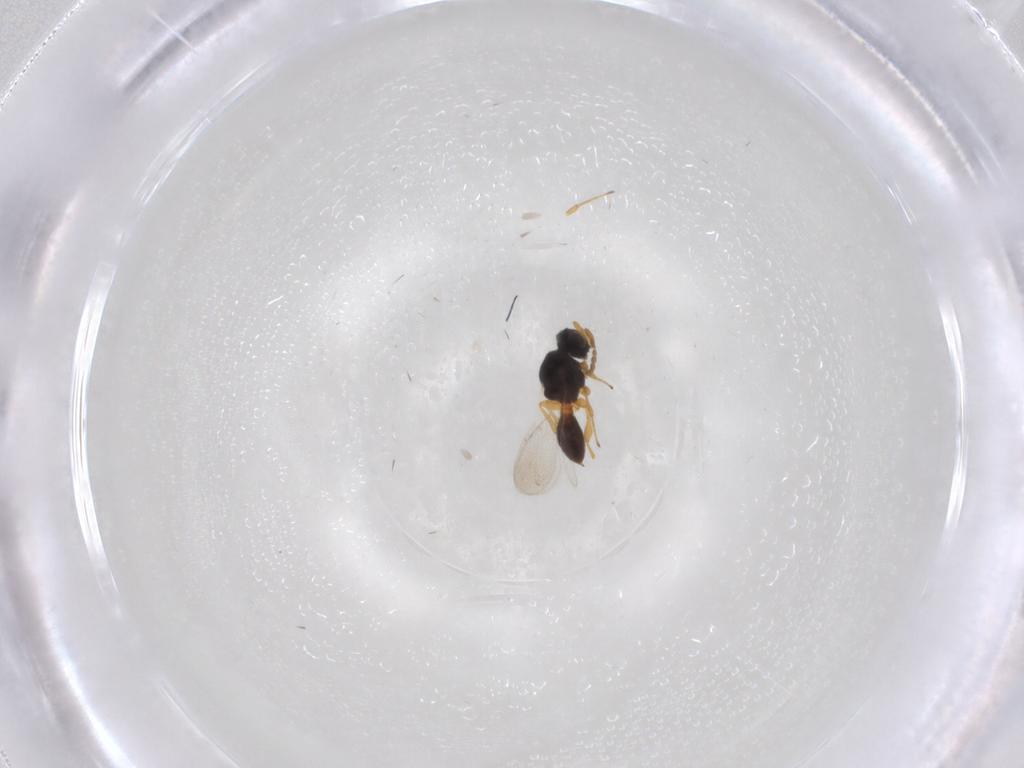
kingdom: Animalia
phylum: Arthropoda
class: Insecta
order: Hymenoptera
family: Platygastridae
